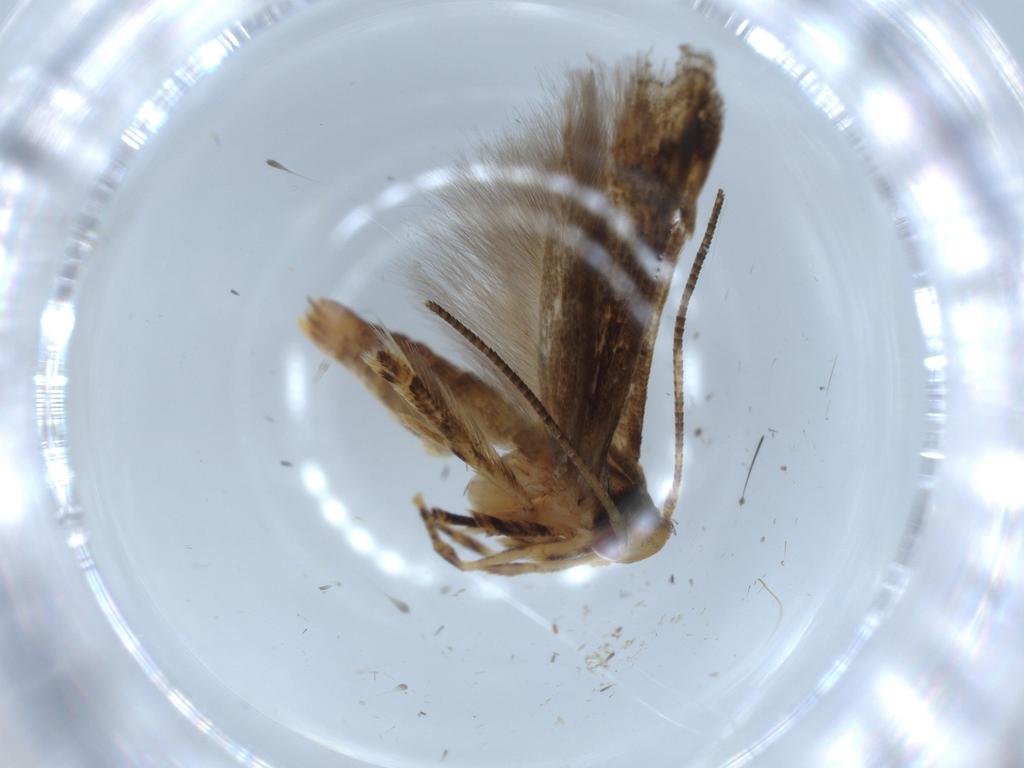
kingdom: Animalia
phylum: Arthropoda
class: Insecta
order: Lepidoptera
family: Tineidae
